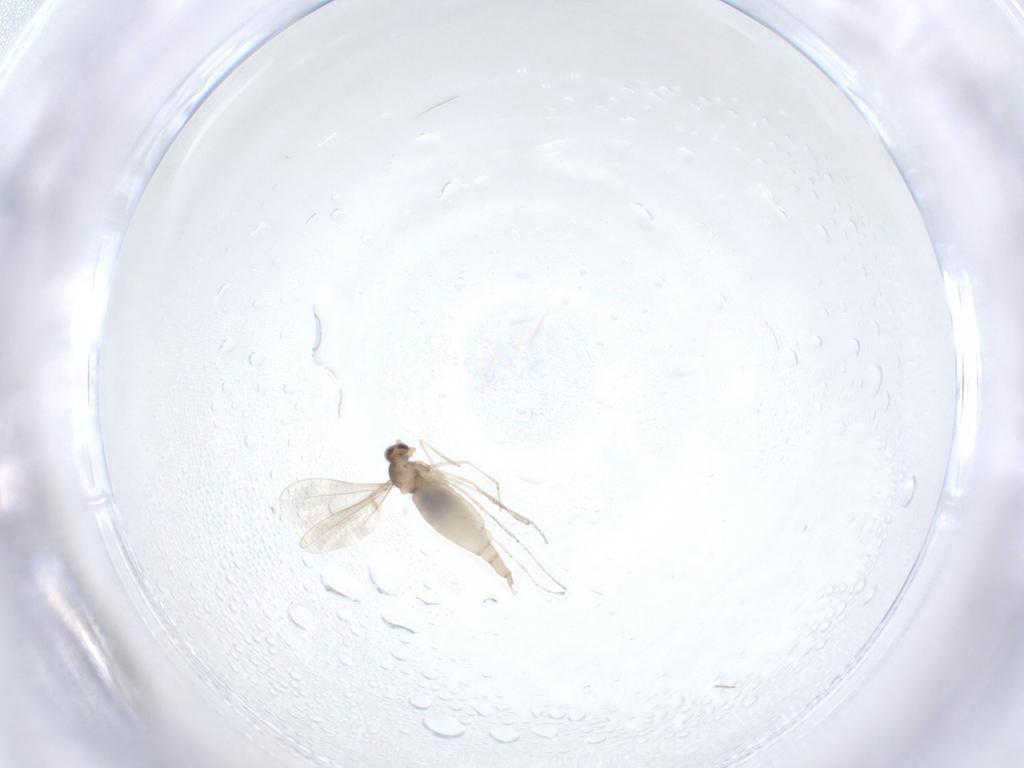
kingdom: Animalia
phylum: Arthropoda
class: Insecta
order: Diptera
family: Cecidomyiidae
